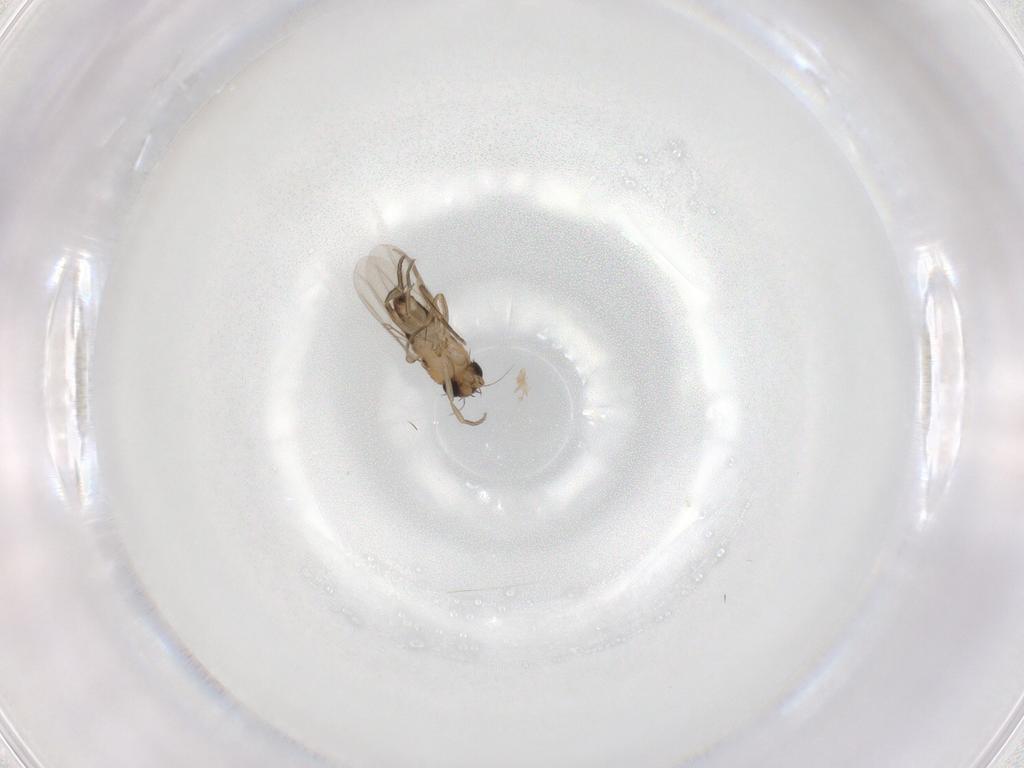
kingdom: Animalia
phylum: Arthropoda
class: Insecta
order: Diptera
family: Phoridae
